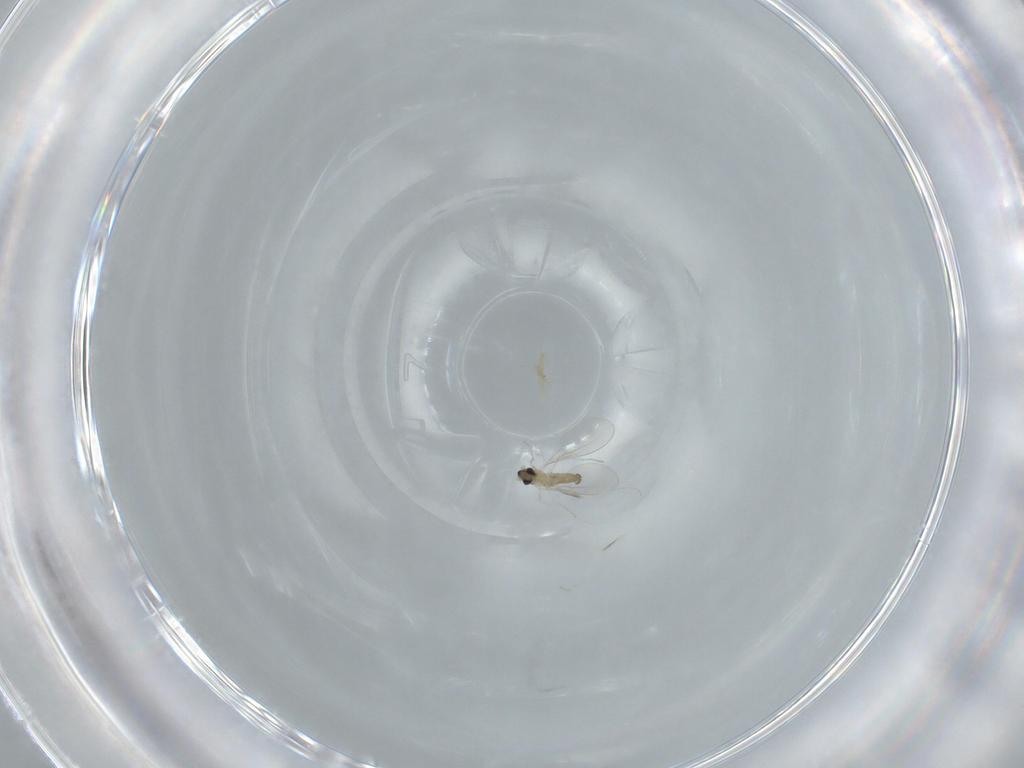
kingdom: Animalia
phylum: Arthropoda
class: Insecta
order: Diptera
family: Cecidomyiidae
